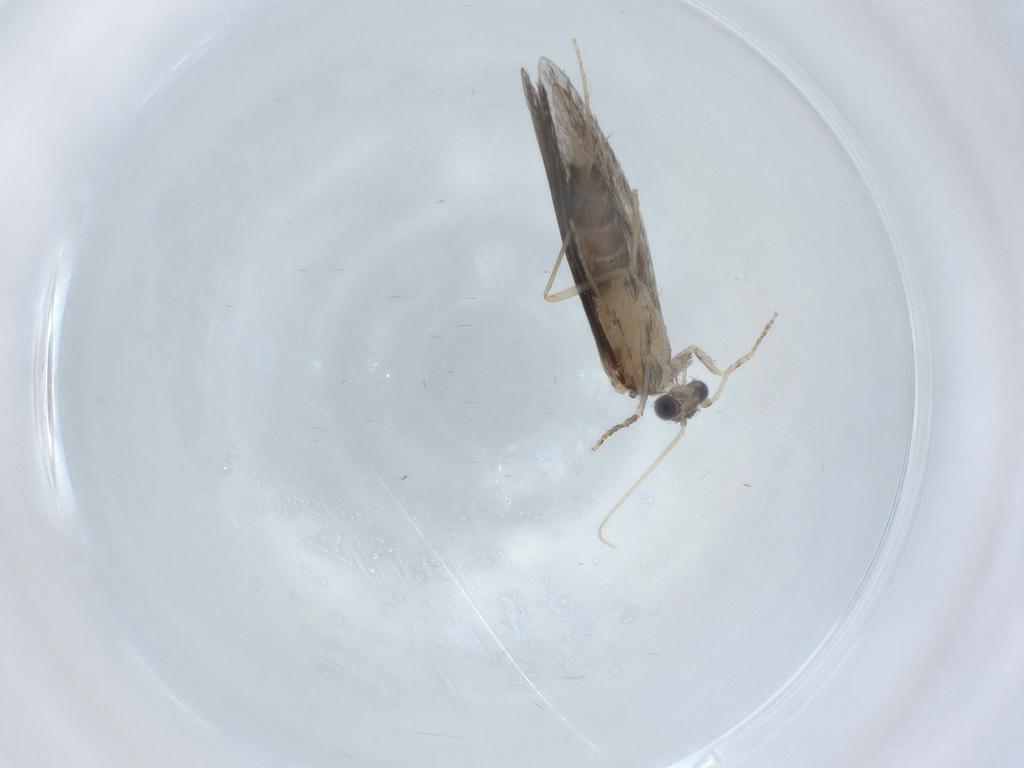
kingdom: Animalia
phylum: Arthropoda
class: Insecta
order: Trichoptera
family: Hydroptilidae
